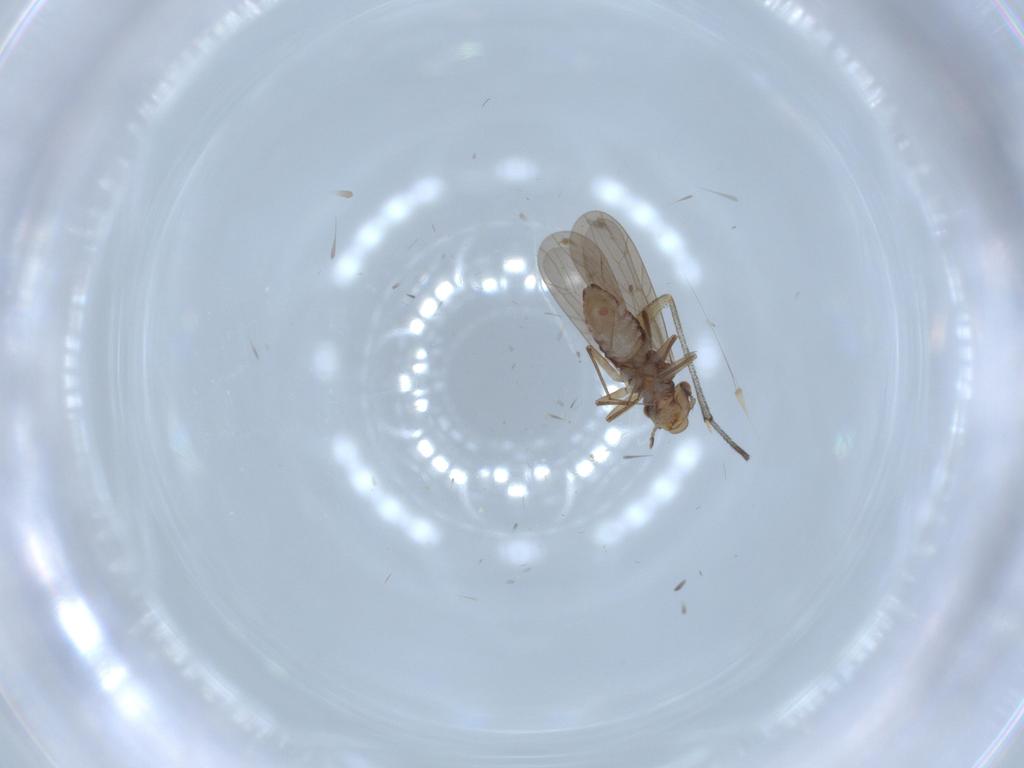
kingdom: Animalia
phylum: Arthropoda
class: Insecta
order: Psocodea
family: Lepidopsocidae
